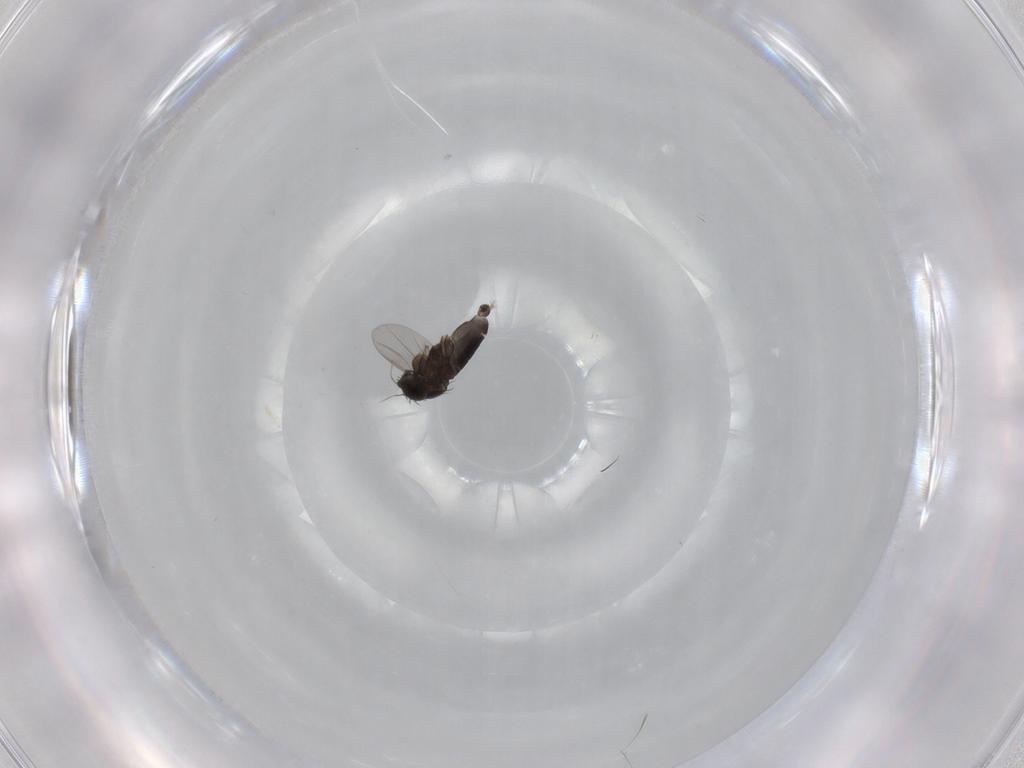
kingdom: Animalia
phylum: Arthropoda
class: Insecta
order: Diptera
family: Phoridae
